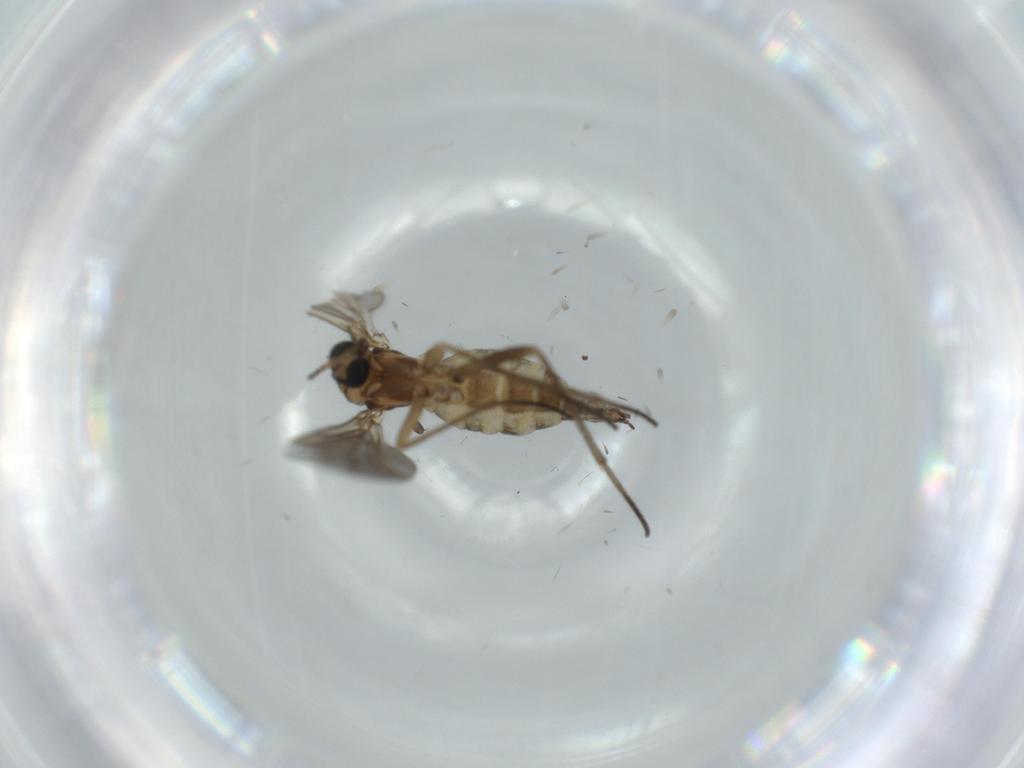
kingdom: Animalia
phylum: Arthropoda
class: Insecta
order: Diptera
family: Sciaridae
